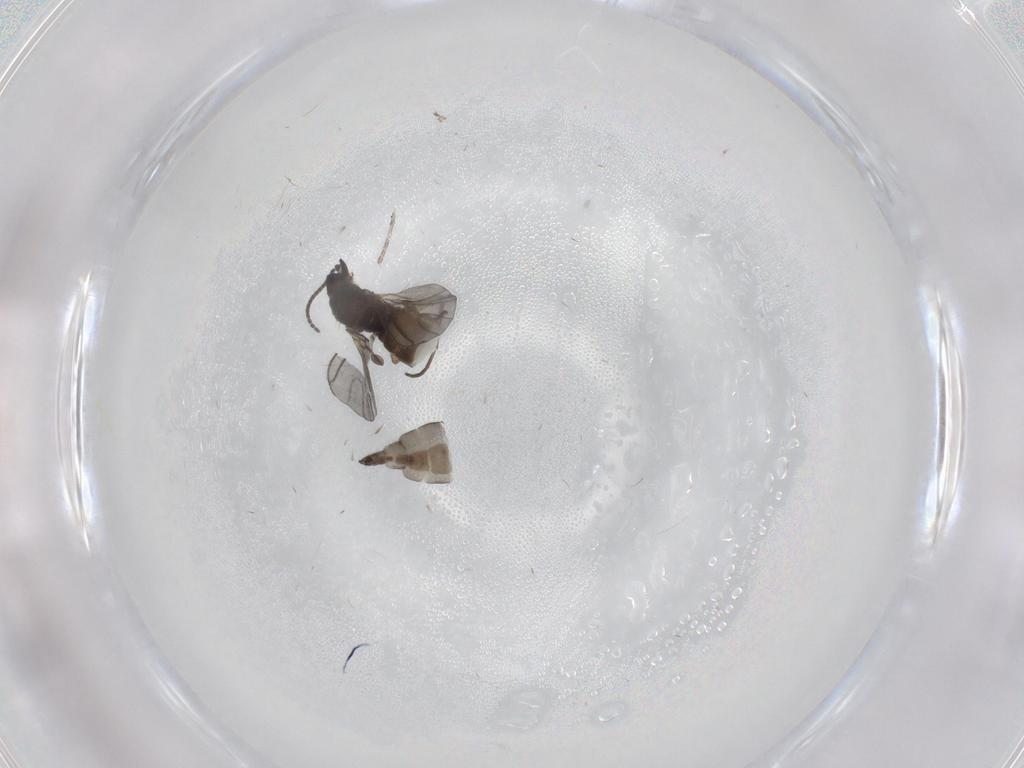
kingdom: Animalia
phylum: Arthropoda
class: Insecta
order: Diptera
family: Sciaridae
